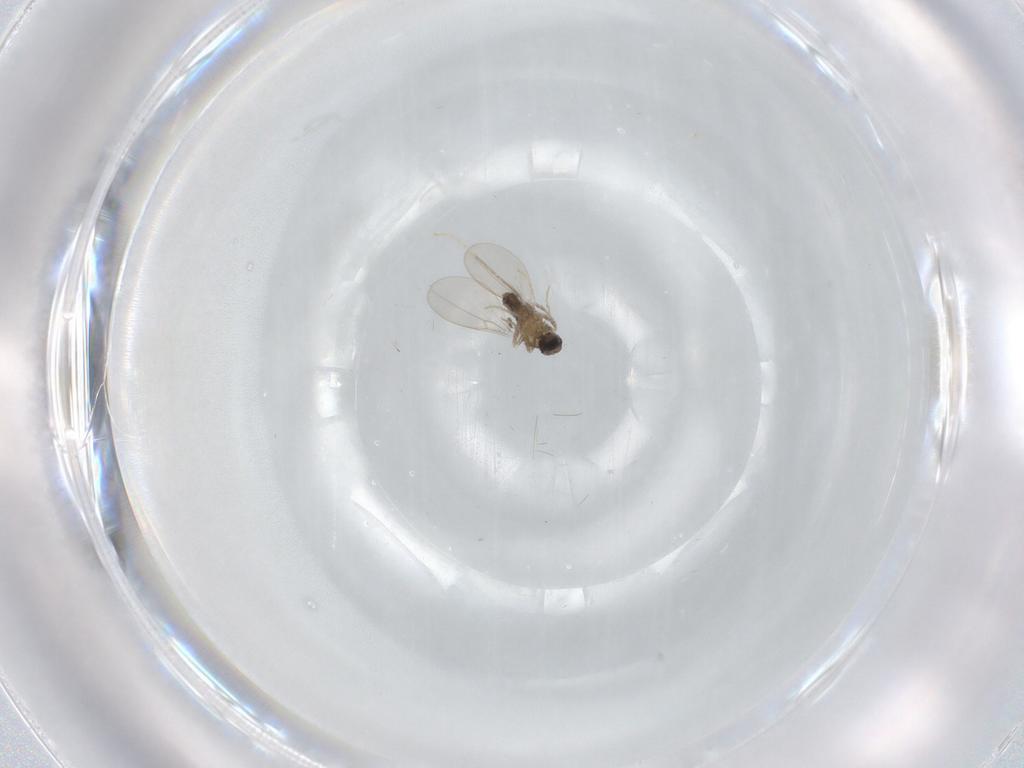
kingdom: Animalia
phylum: Arthropoda
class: Insecta
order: Diptera
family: Cecidomyiidae
